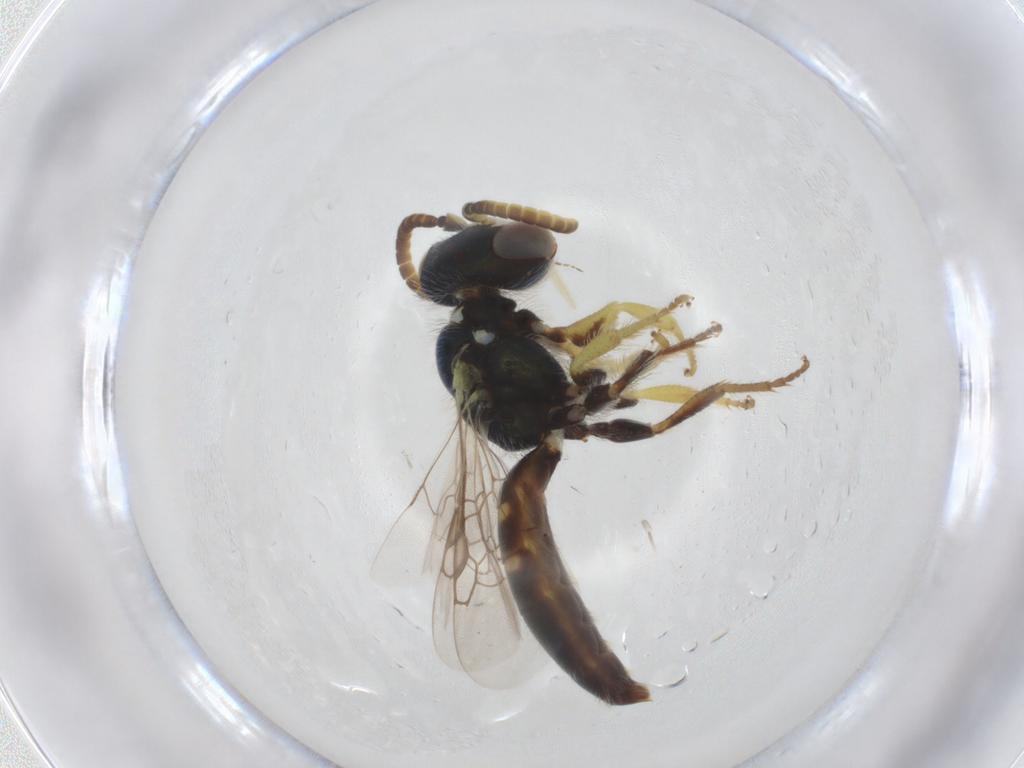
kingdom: Animalia
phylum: Arthropoda
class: Insecta
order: Hymenoptera
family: Andrenidae
